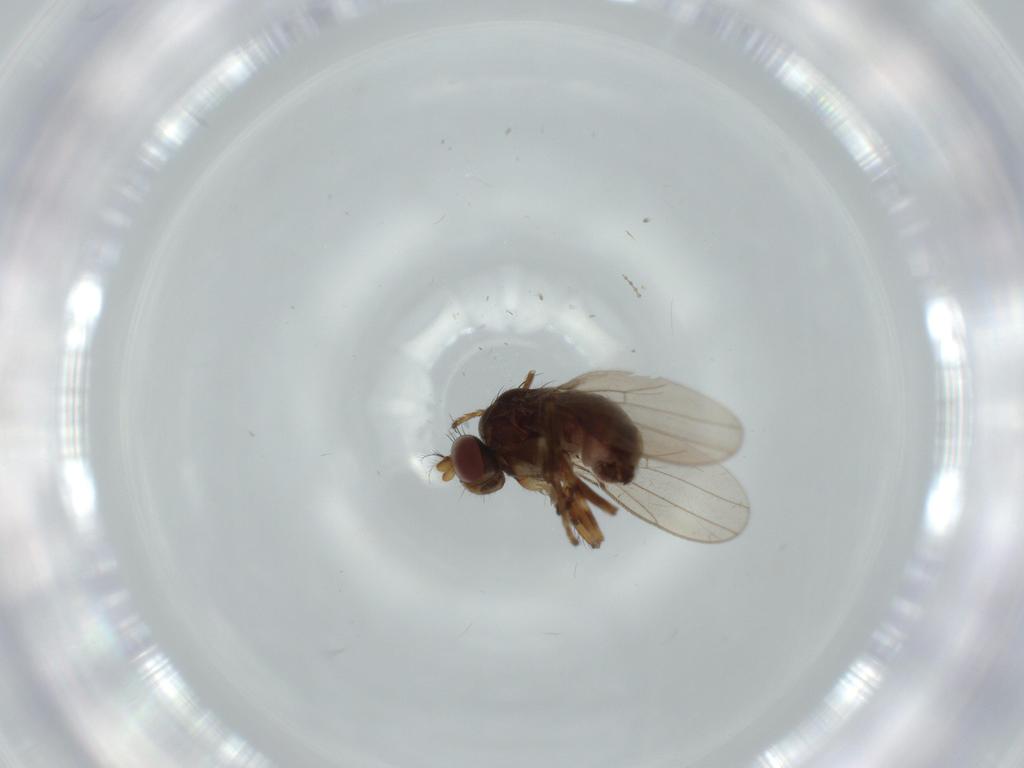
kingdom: Animalia
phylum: Arthropoda
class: Insecta
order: Diptera
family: Ephydridae
